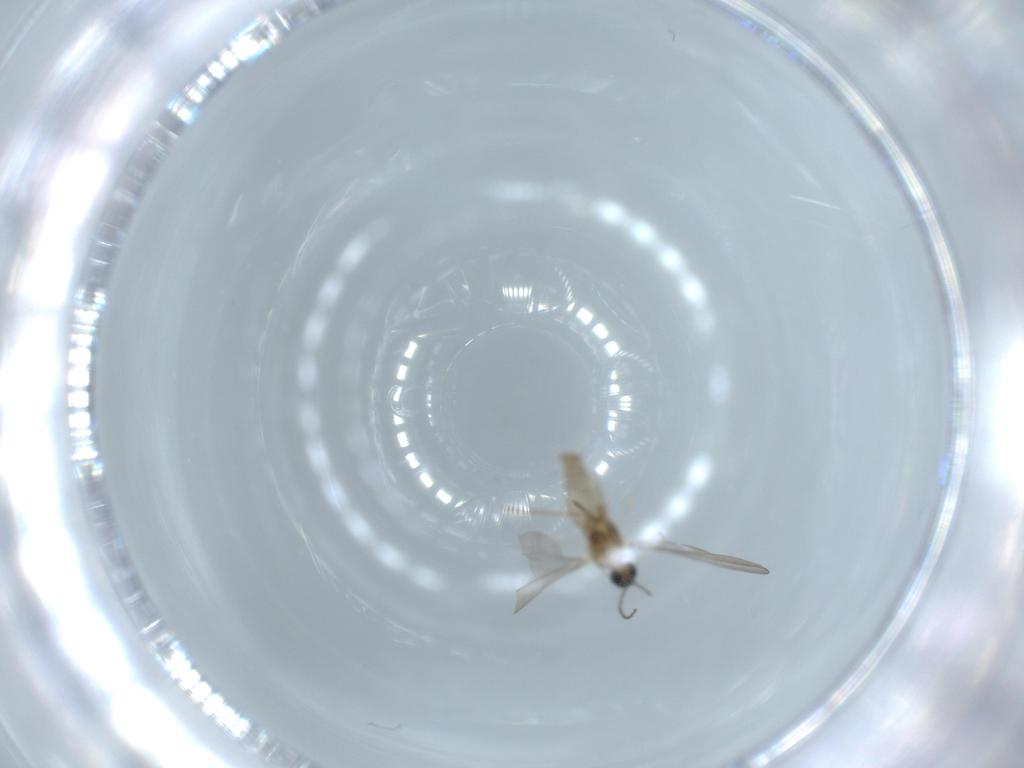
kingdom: Animalia
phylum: Arthropoda
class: Insecta
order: Diptera
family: Cecidomyiidae
